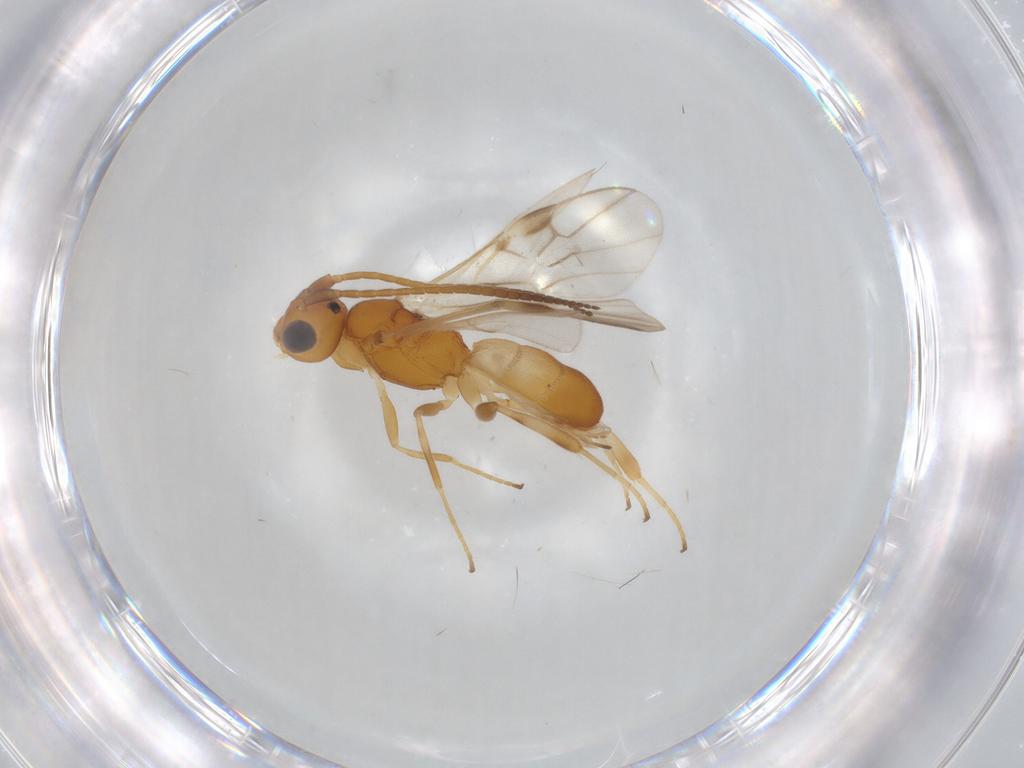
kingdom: Animalia
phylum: Arthropoda
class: Insecta
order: Hymenoptera
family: Braconidae
